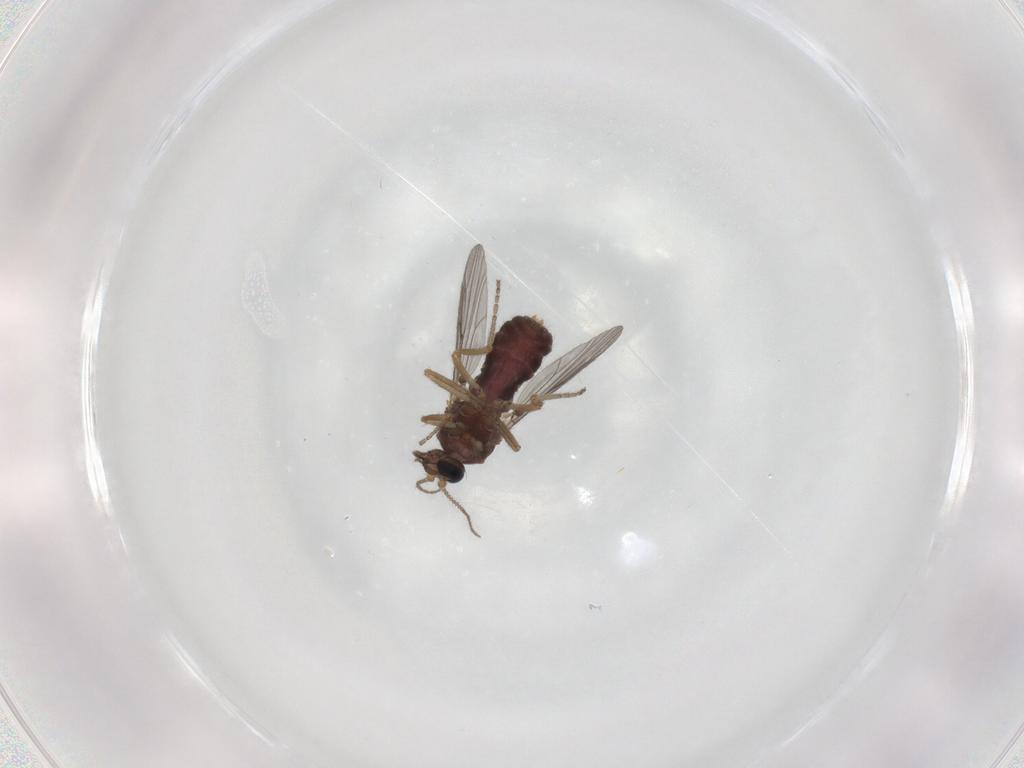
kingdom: Animalia
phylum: Arthropoda
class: Insecta
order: Diptera
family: Ceratopogonidae
